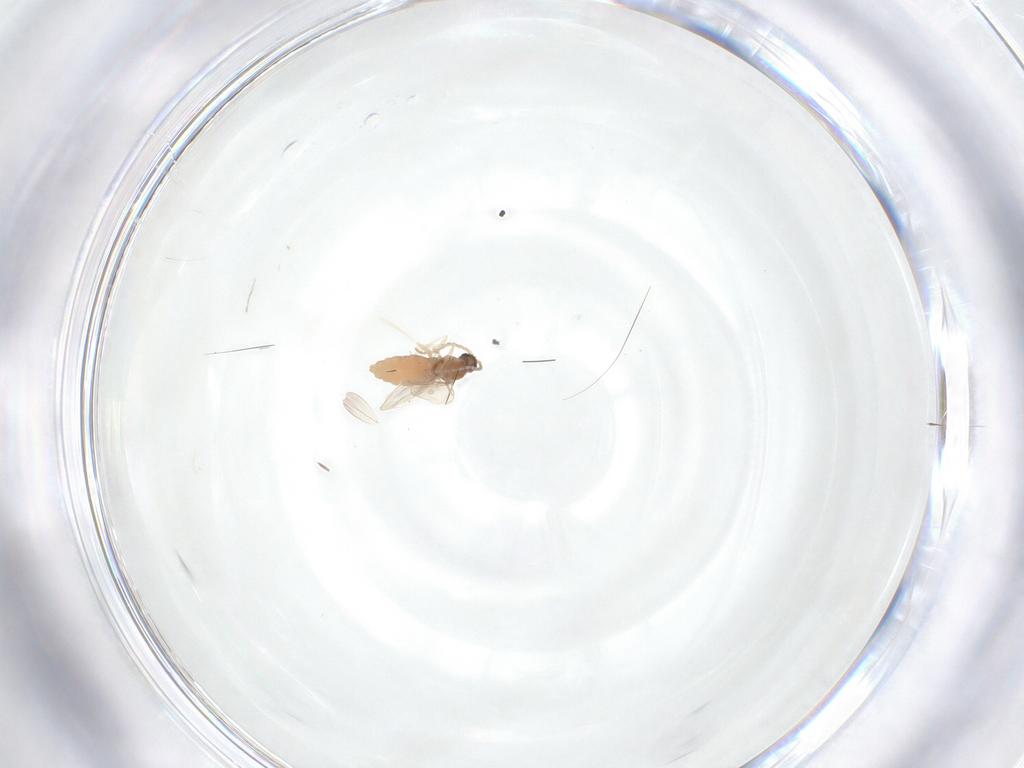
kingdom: Animalia
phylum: Arthropoda
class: Insecta
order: Diptera
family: Cecidomyiidae
